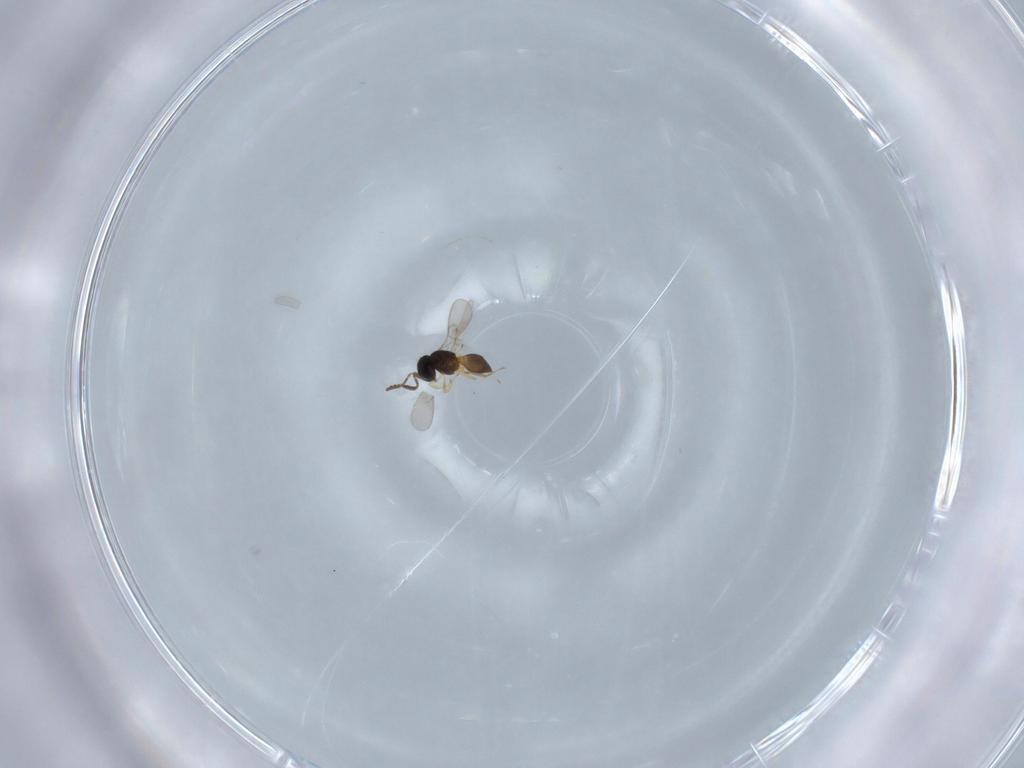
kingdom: Animalia
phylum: Arthropoda
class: Insecta
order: Hymenoptera
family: Scelionidae
